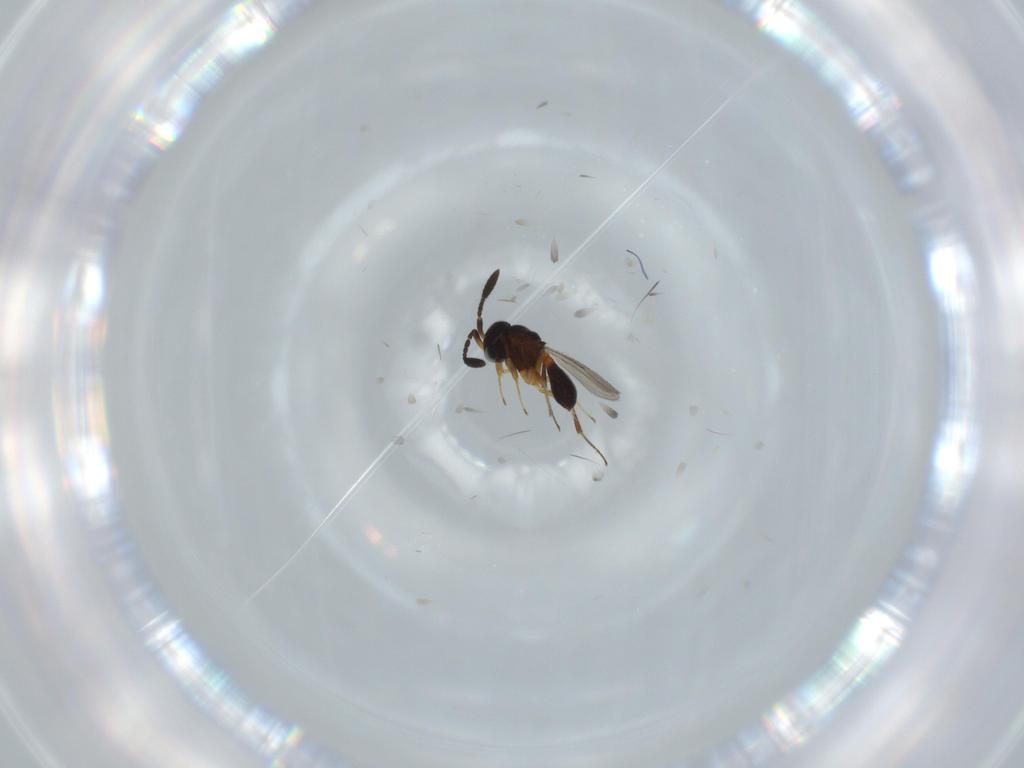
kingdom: Animalia
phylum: Arthropoda
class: Insecta
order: Hymenoptera
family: Scelionidae
